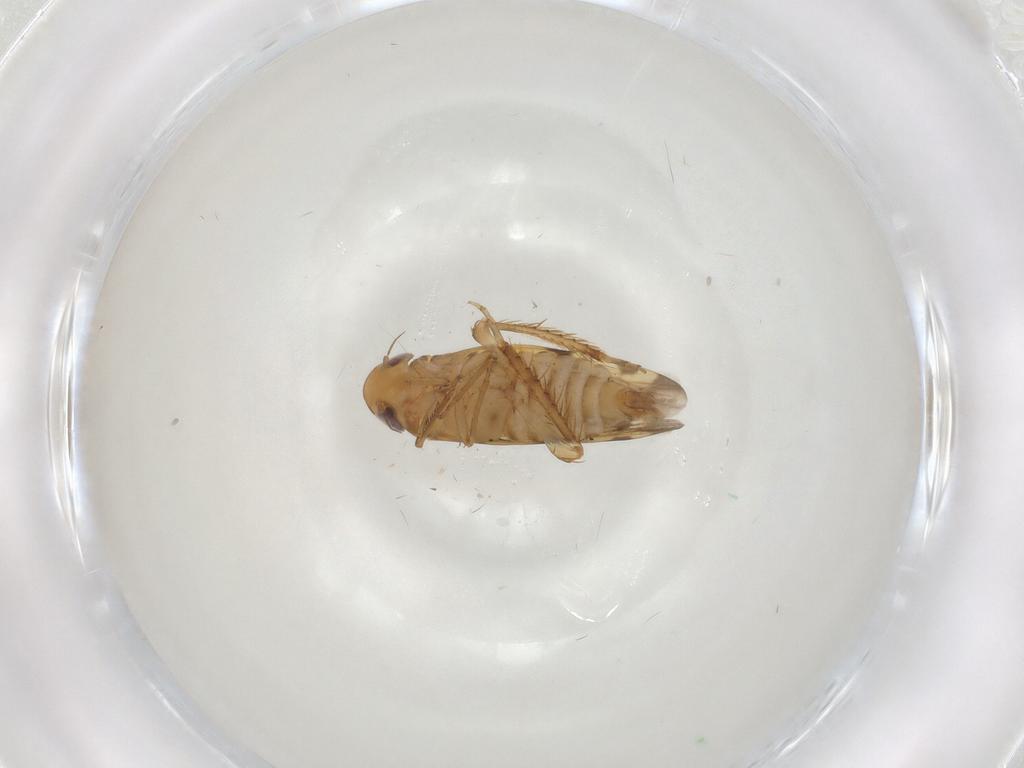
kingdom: Animalia
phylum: Arthropoda
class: Insecta
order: Hemiptera
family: Cicadellidae
